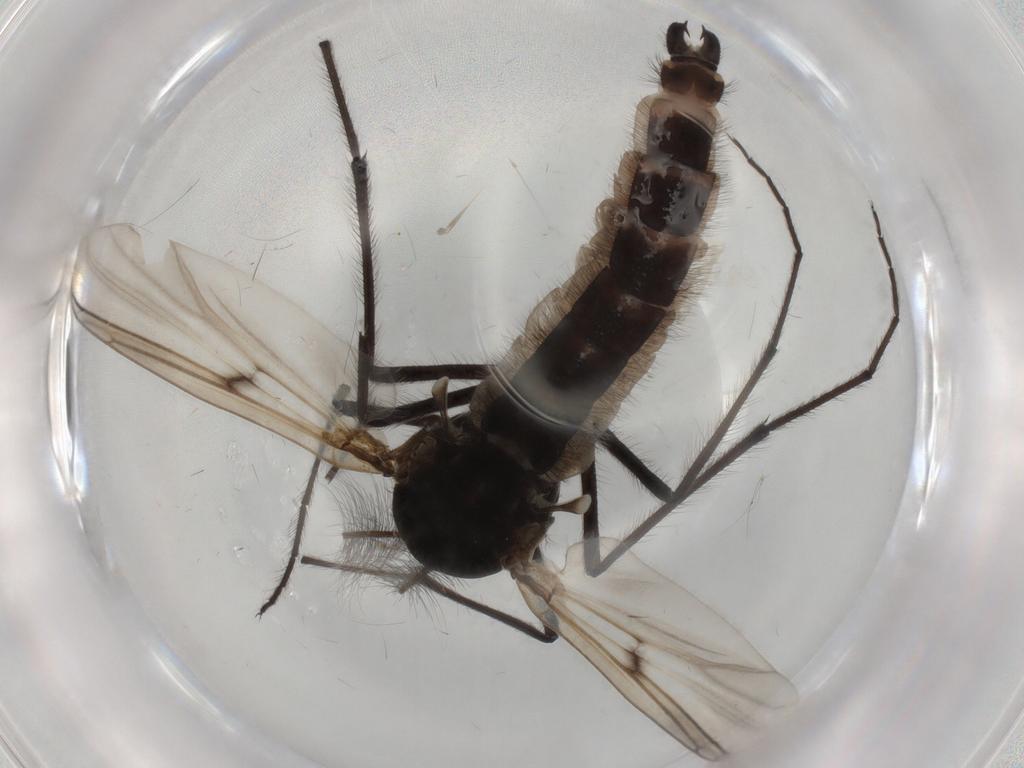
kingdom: Animalia
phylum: Arthropoda
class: Insecta
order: Diptera
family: Chironomidae
